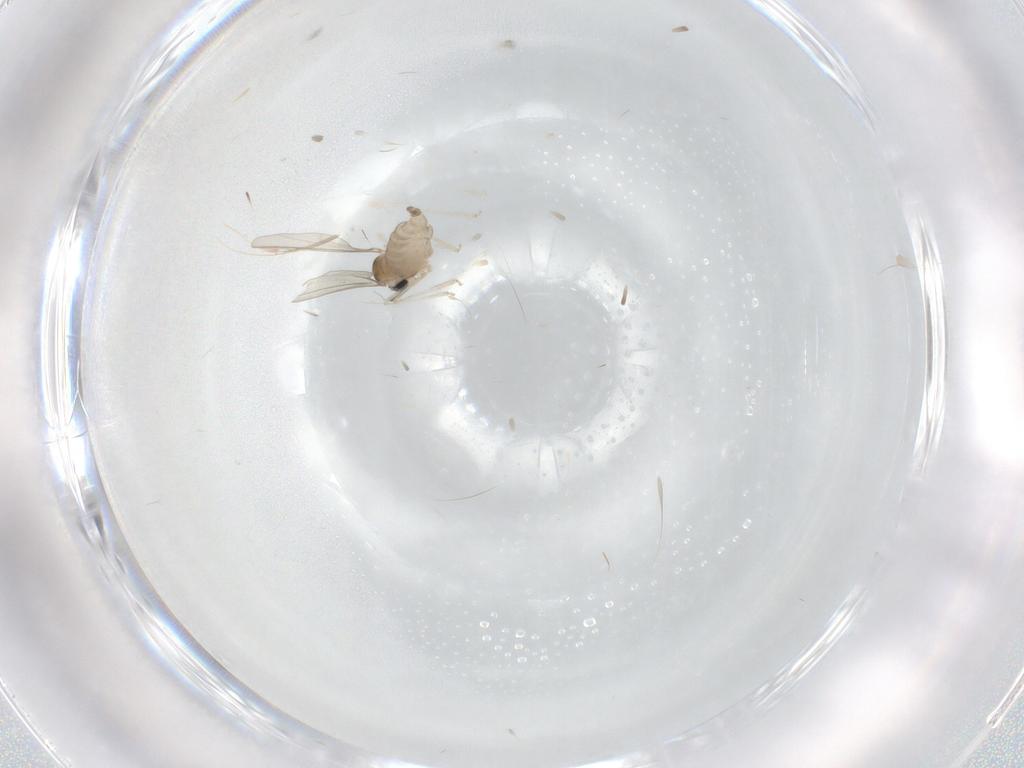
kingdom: Animalia
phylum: Arthropoda
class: Insecta
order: Diptera
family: Cecidomyiidae
